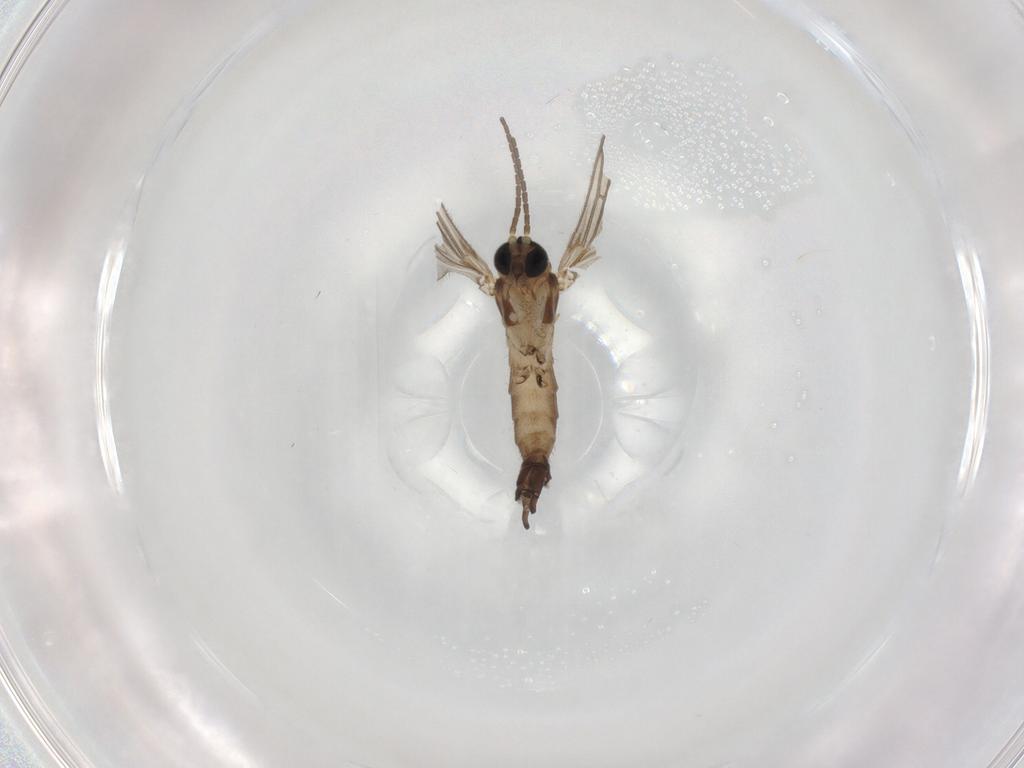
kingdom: Animalia
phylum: Arthropoda
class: Insecta
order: Diptera
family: Sciaridae
